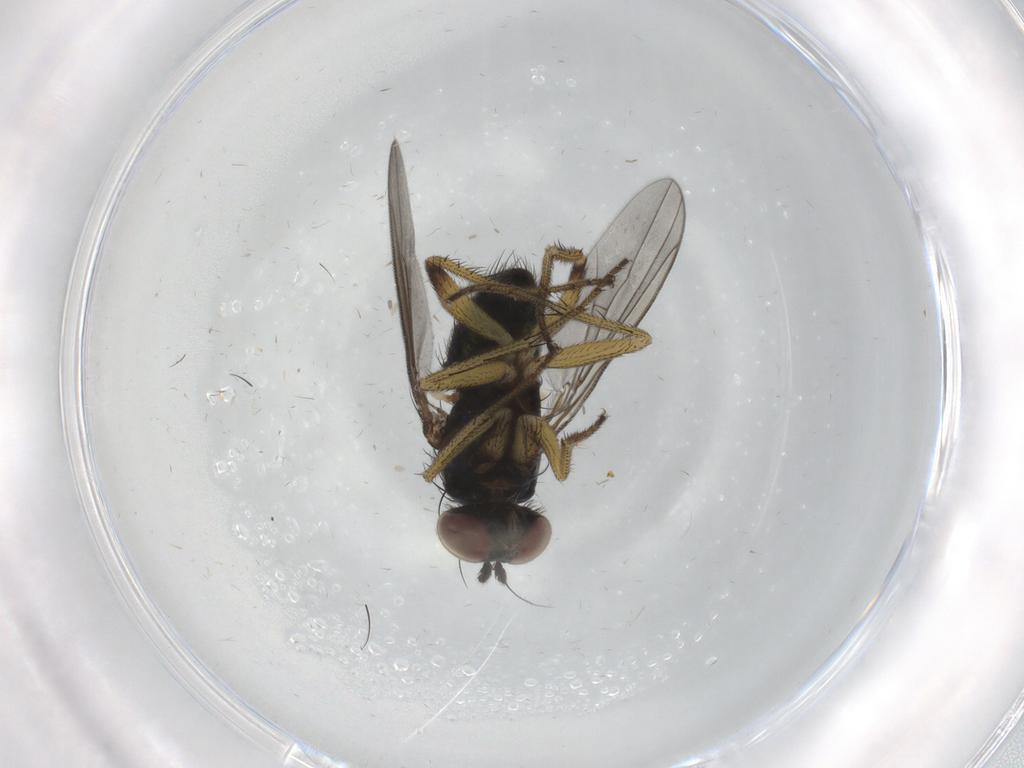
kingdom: Animalia
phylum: Arthropoda
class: Insecta
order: Diptera
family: Dolichopodidae
